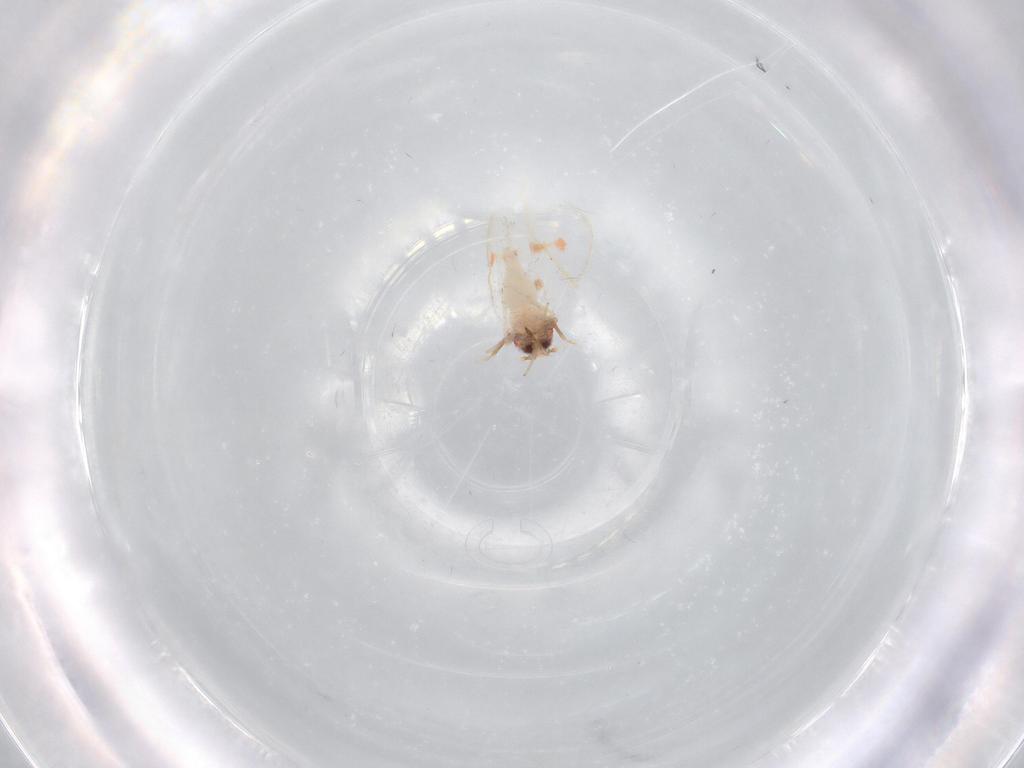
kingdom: Animalia
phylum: Arthropoda
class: Insecta
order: Hemiptera
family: Aleyrodidae
